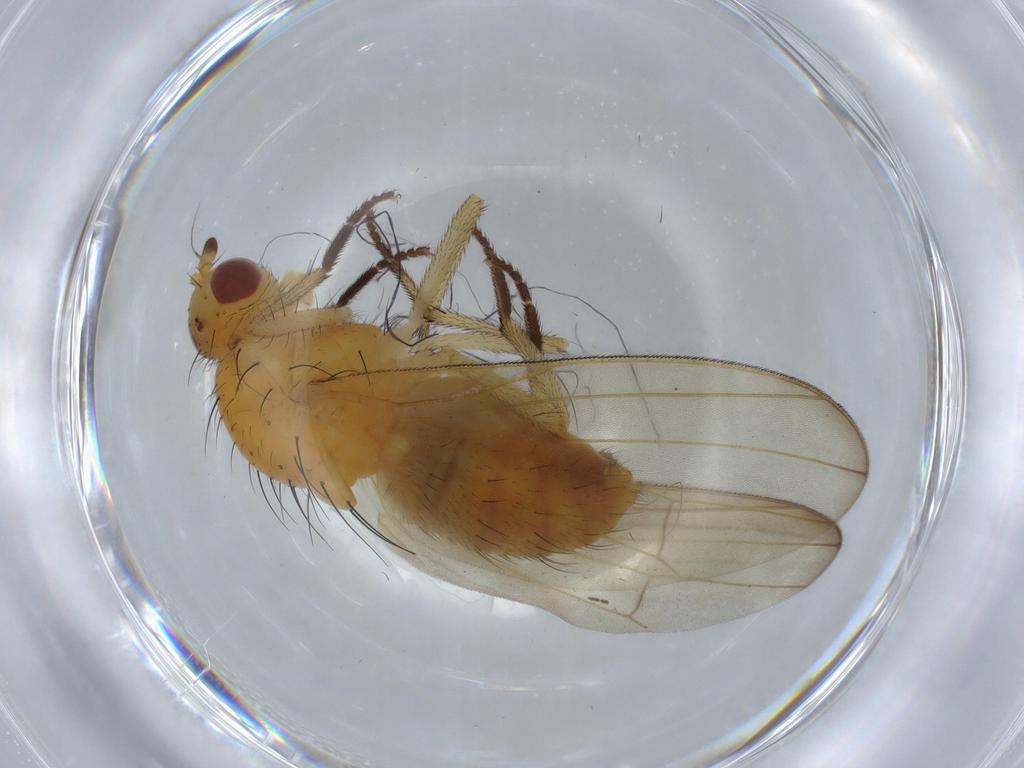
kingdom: Animalia
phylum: Arthropoda
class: Insecta
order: Diptera
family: Chironomidae
